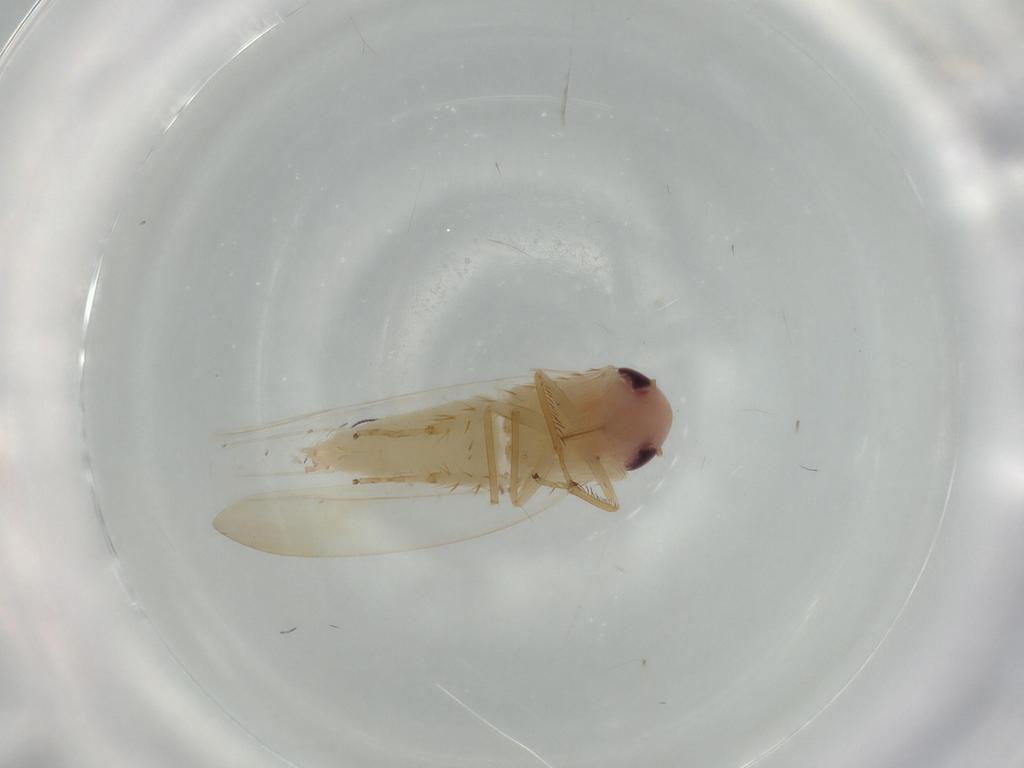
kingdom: Animalia
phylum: Arthropoda
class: Insecta
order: Hemiptera
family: Cicadellidae
